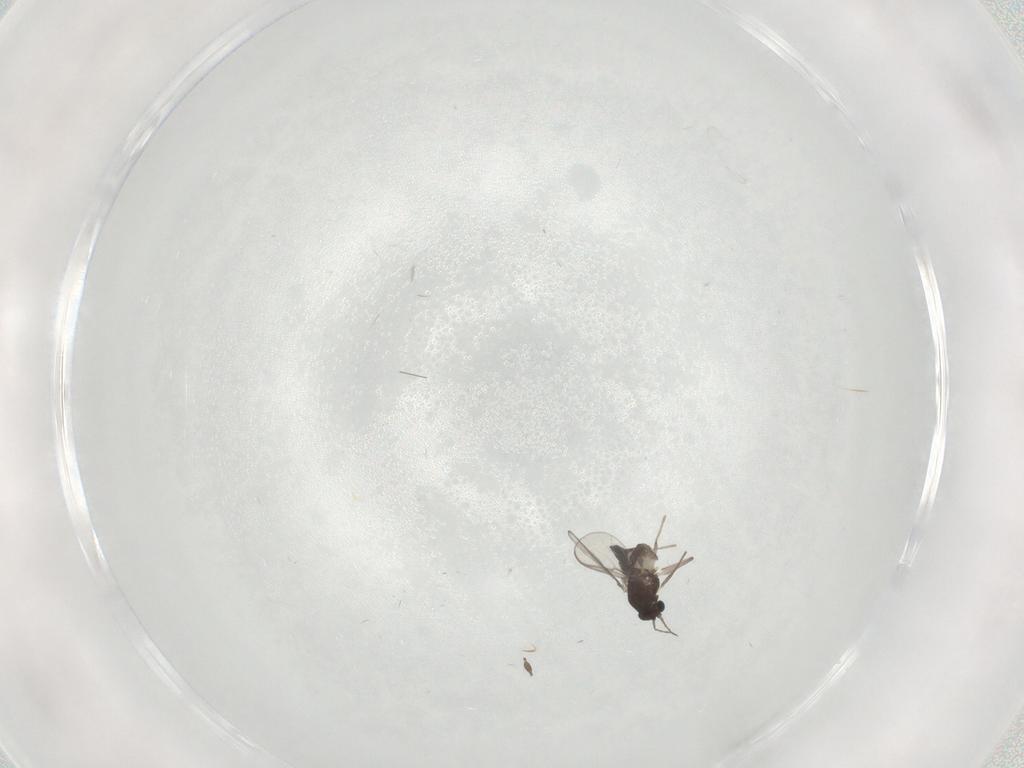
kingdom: Animalia
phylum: Arthropoda
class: Insecta
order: Diptera
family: Chironomidae
